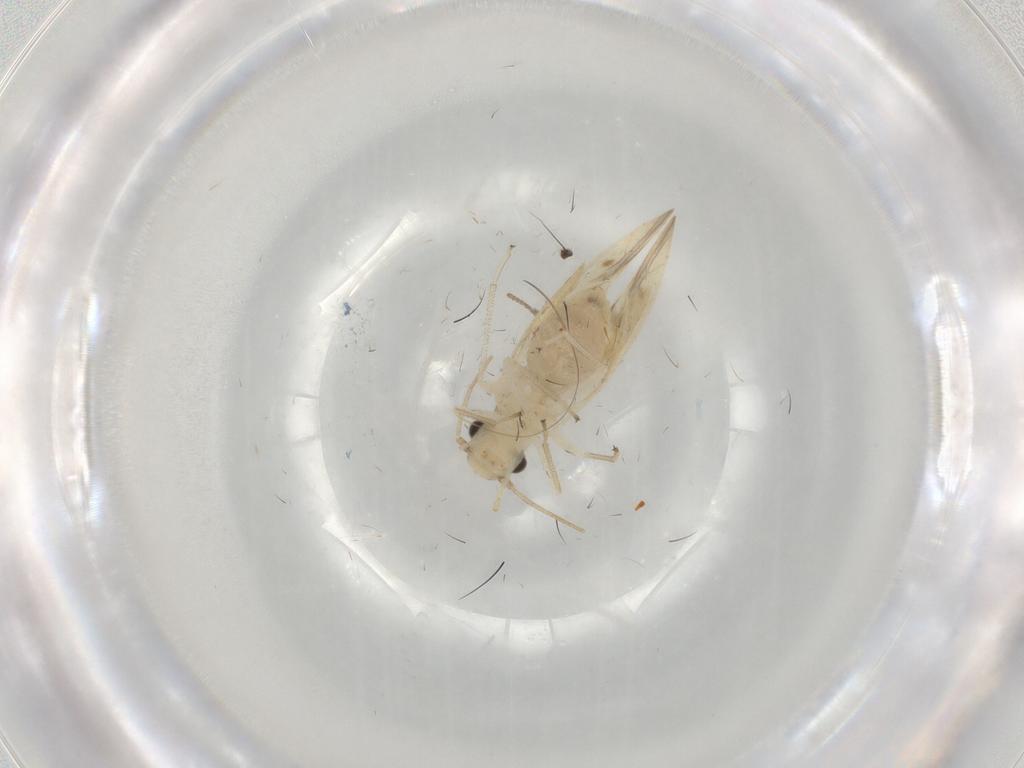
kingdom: Animalia
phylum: Arthropoda
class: Insecta
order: Psocodea
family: Caeciliusidae
